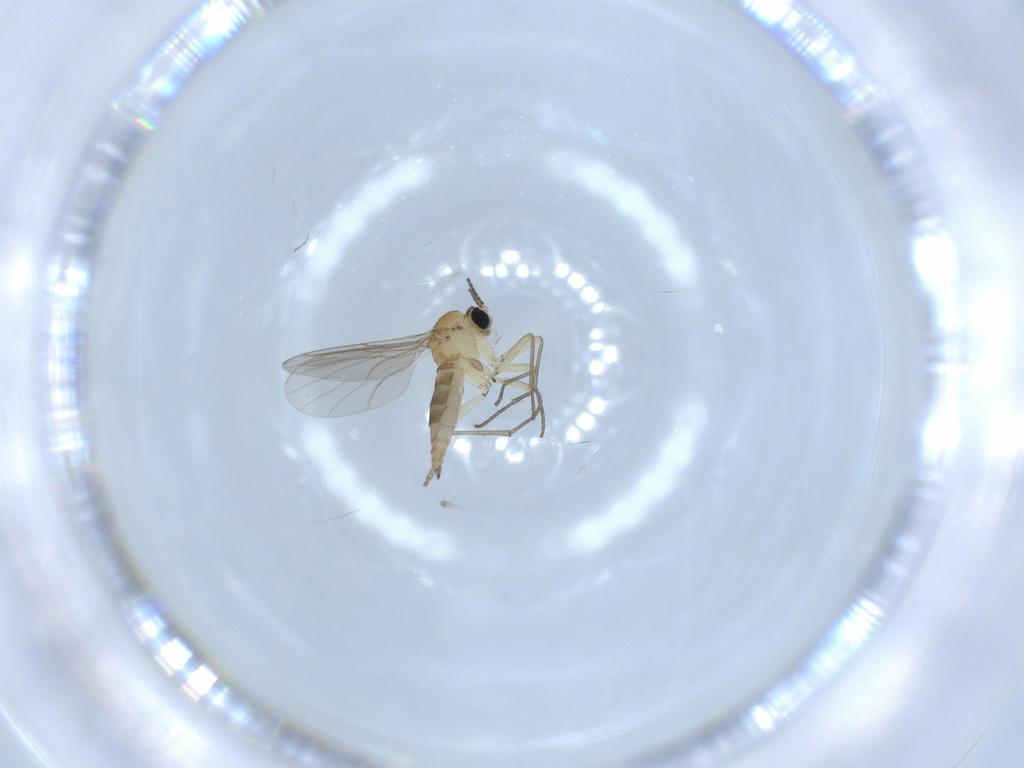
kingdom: Animalia
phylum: Arthropoda
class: Insecta
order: Diptera
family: Sciaridae
